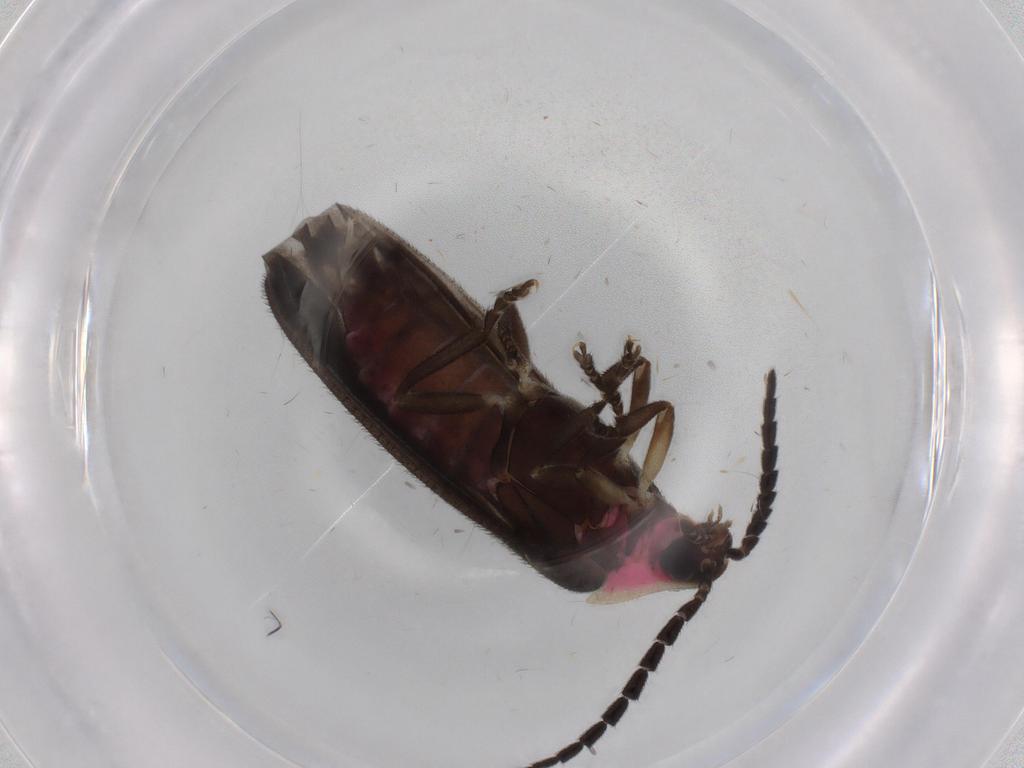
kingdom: Animalia
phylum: Arthropoda
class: Insecta
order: Coleoptera
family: Lampyridae
